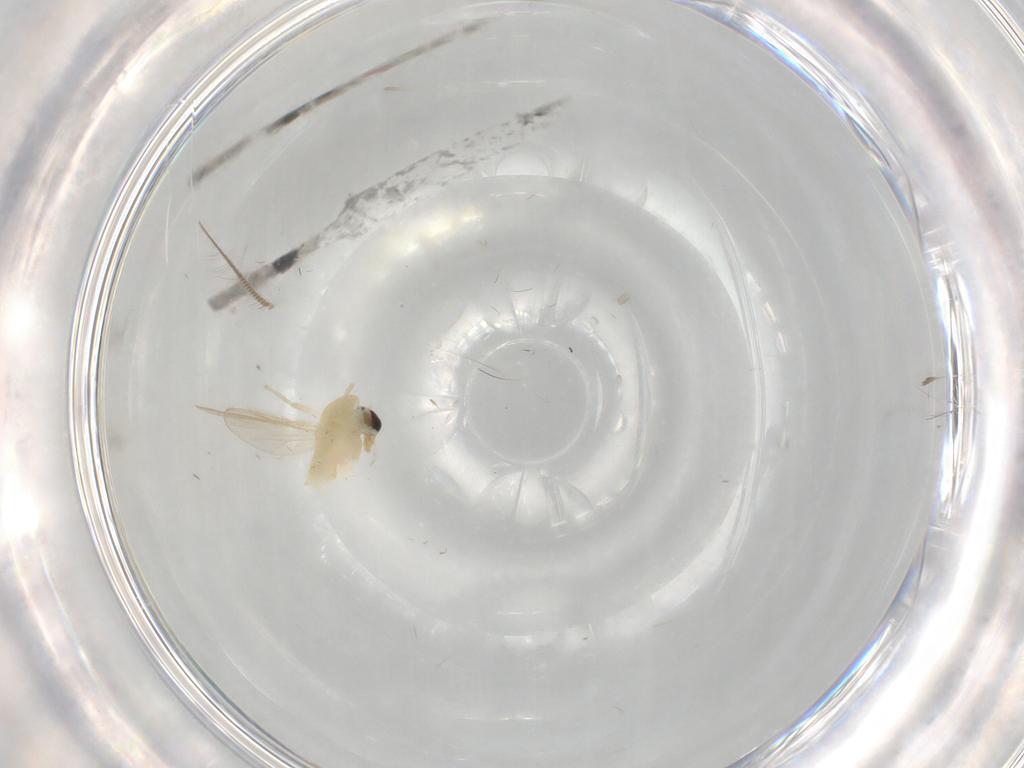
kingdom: Animalia
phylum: Arthropoda
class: Insecta
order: Diptera
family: Chironomidae
